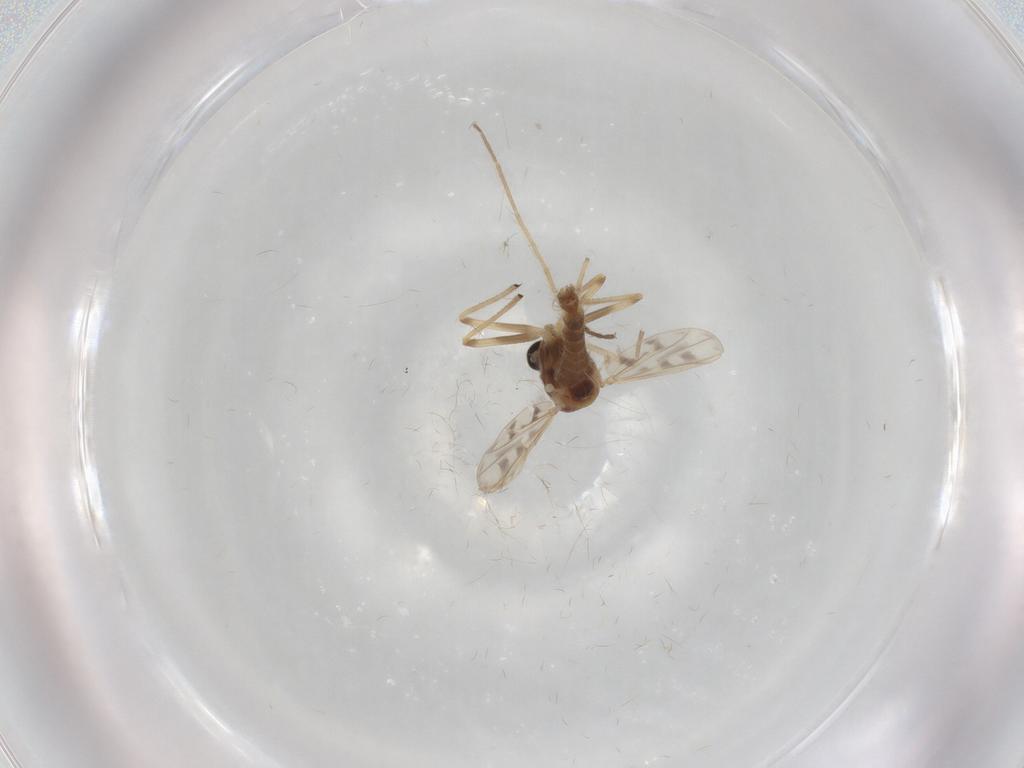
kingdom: Animalia
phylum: Arthropoda
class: Insecta
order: Diptera
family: Chironomidae
